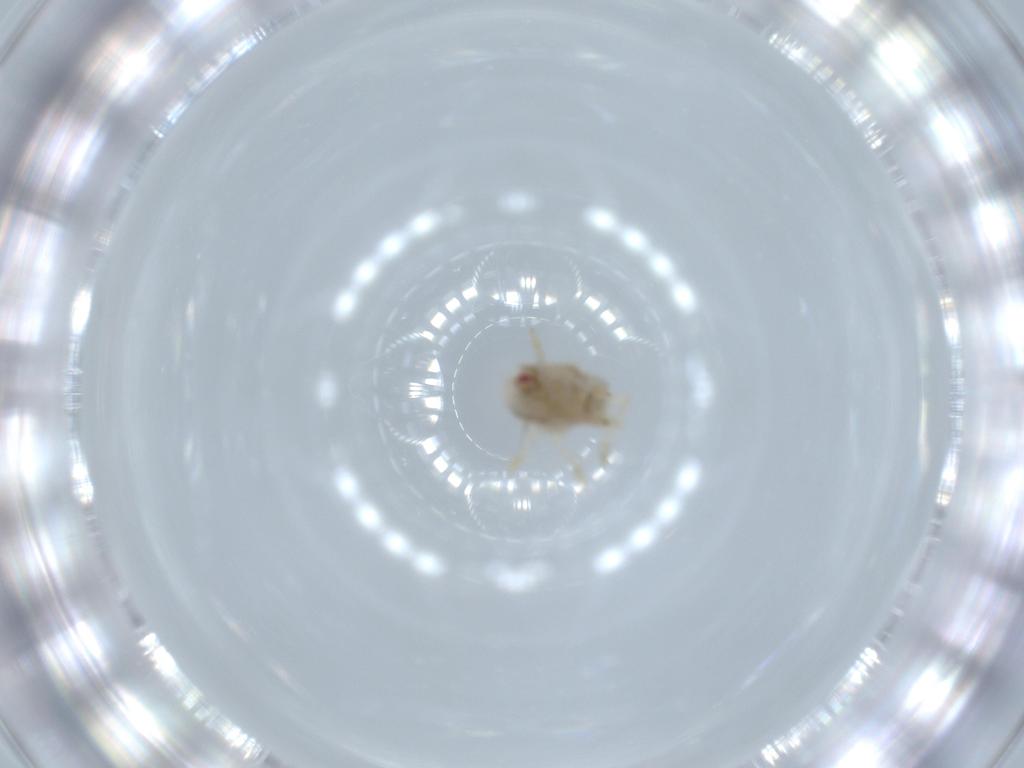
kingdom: Animalia
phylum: Arthropoda
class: Insecta
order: Hemiptera
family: Acanaloniidae
